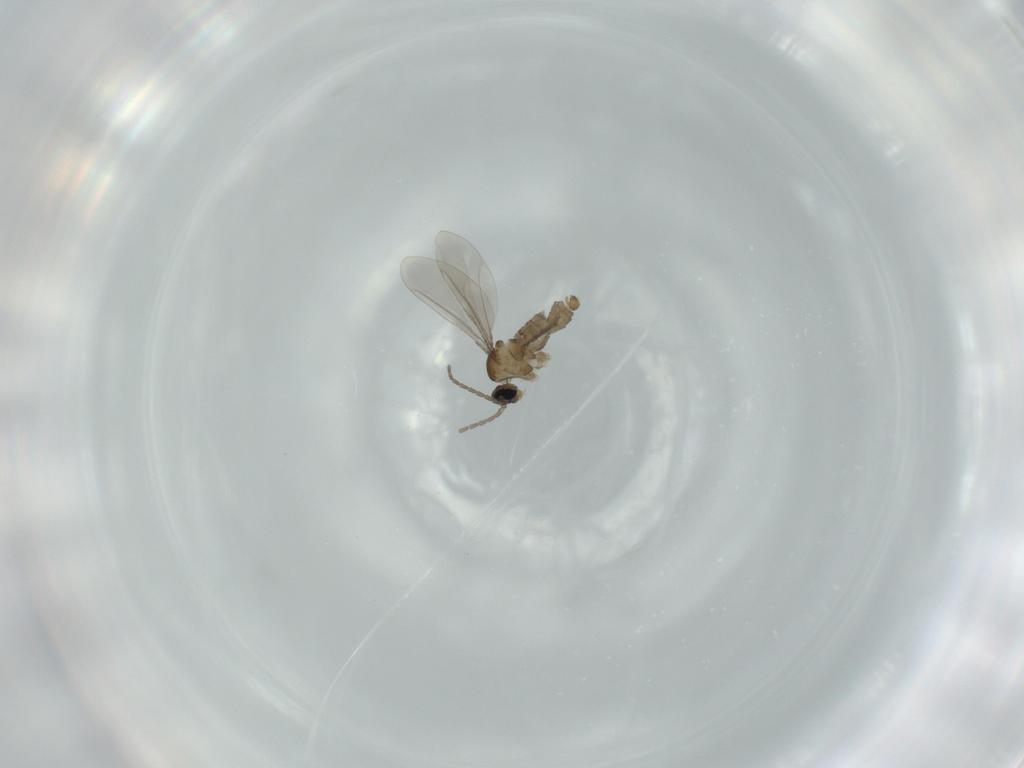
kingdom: Animalia
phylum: Arthropoda
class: Insecta
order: Diptera
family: Cecidomyiidae
